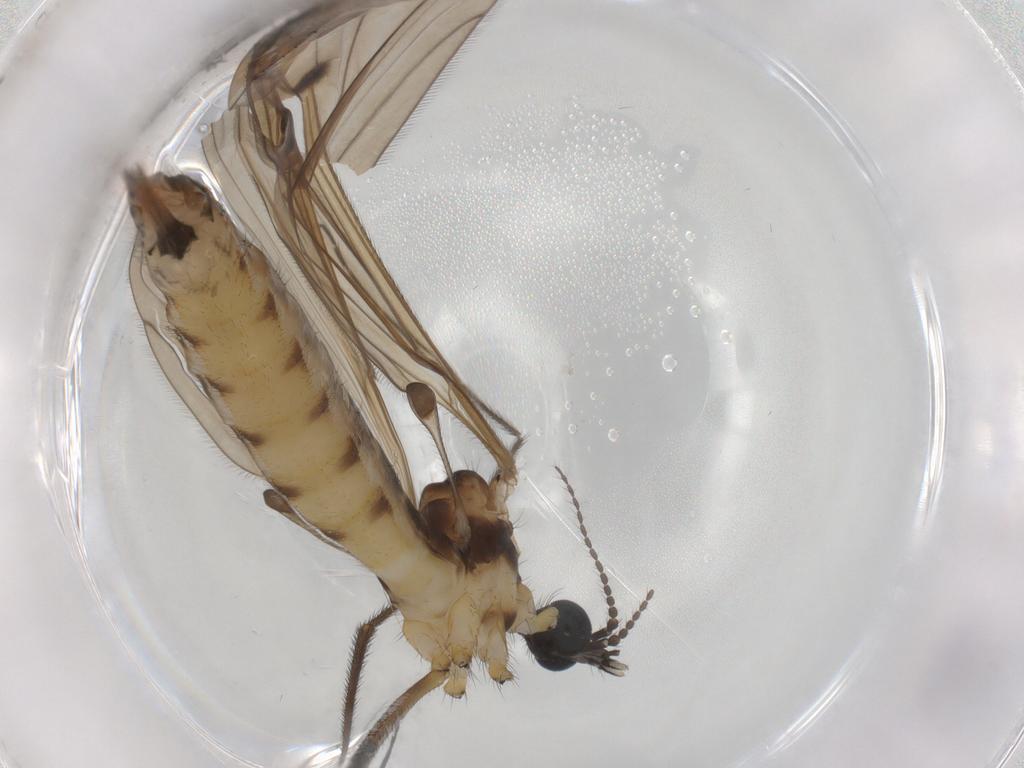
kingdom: Animalia
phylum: Arthropoda
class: Insecta
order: Diptera
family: Limoniidae
